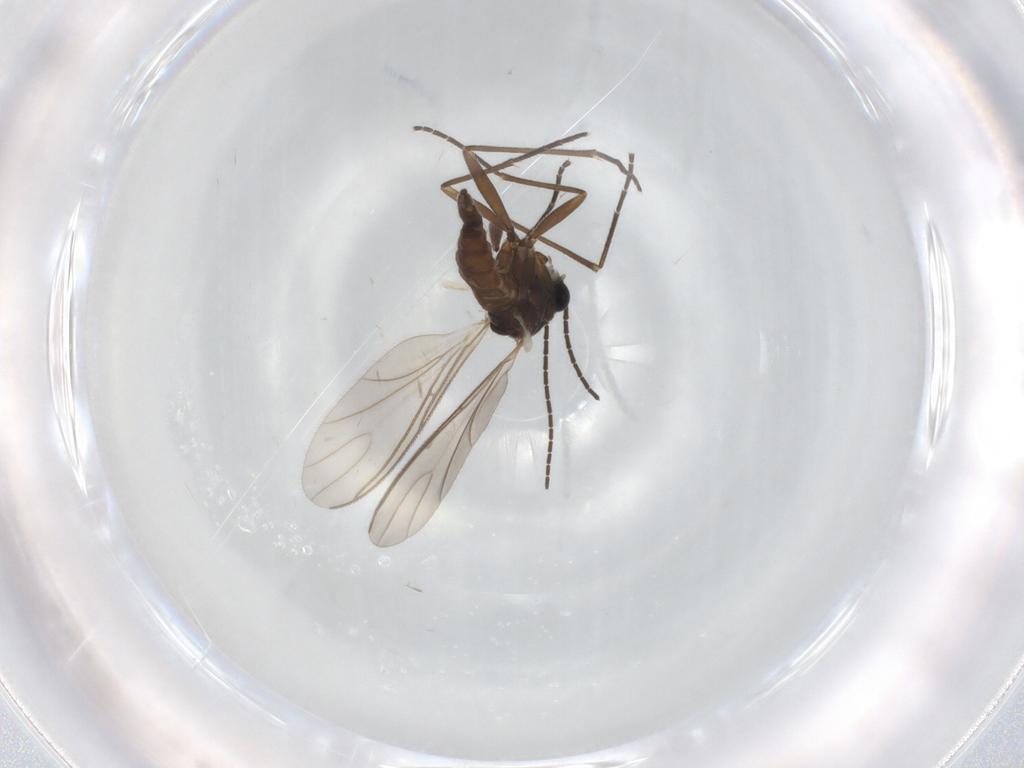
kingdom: Animalia
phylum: Arthropoda
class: Insecta
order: Diptera
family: Sciaridae
